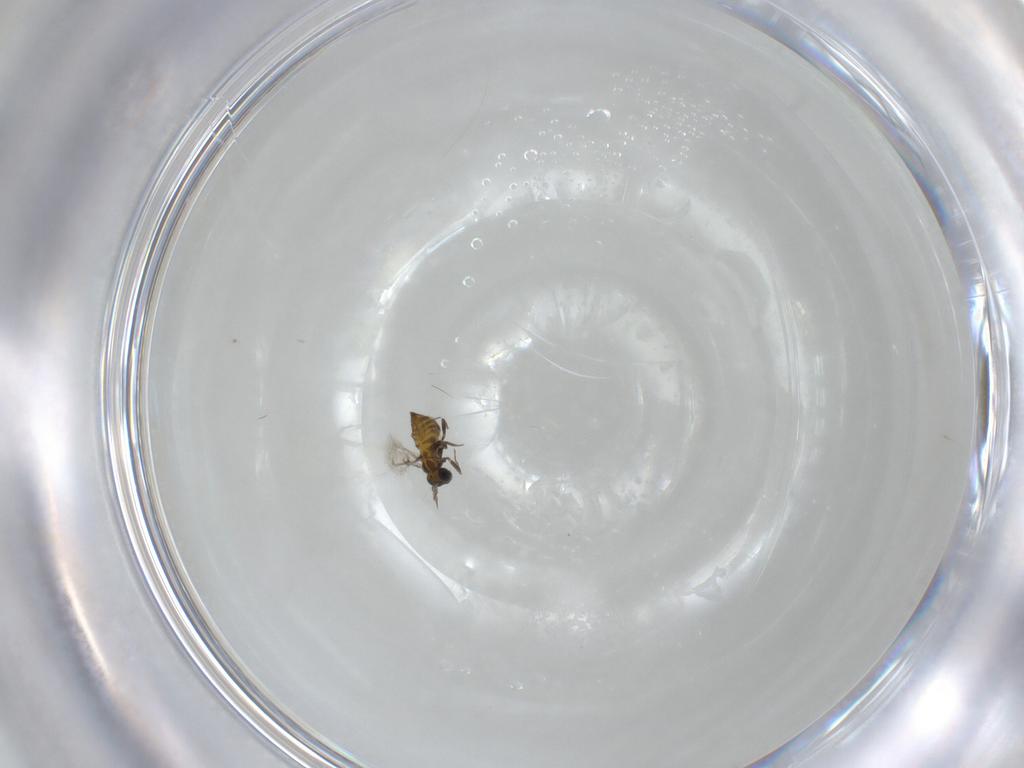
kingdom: Animalia
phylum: Arthropoda
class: Insecta
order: Hymenoptera
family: Trichogrammatidae
